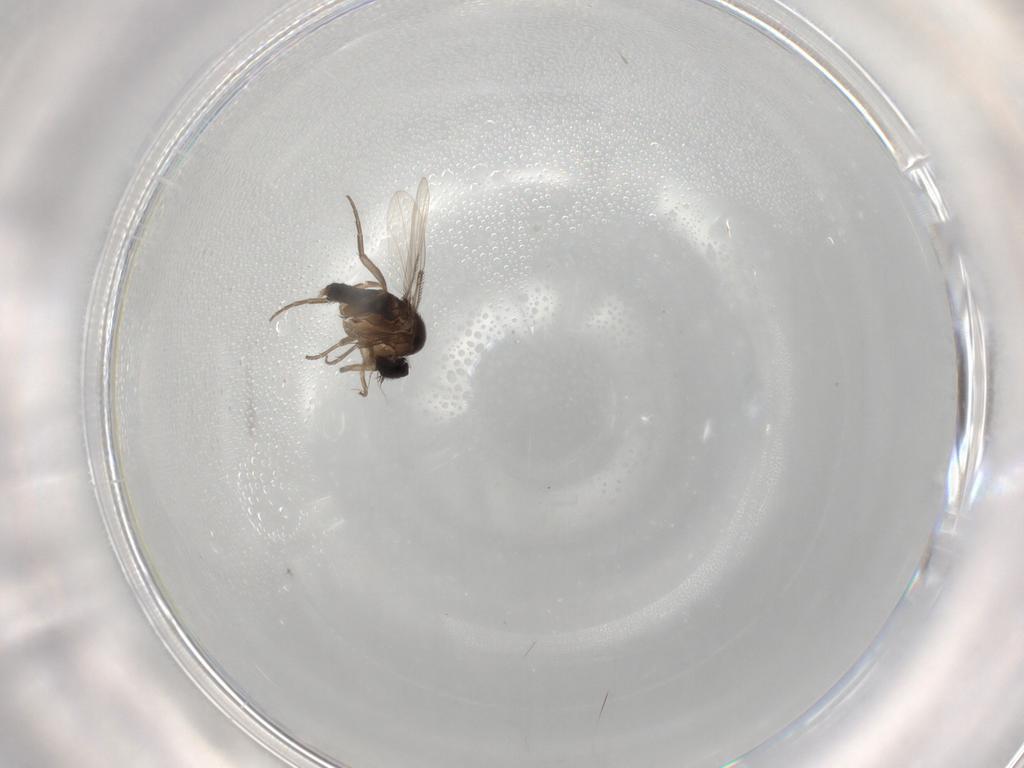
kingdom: Animalia
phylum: Arthropoda
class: Insecta
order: Diptera
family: Phoridae
